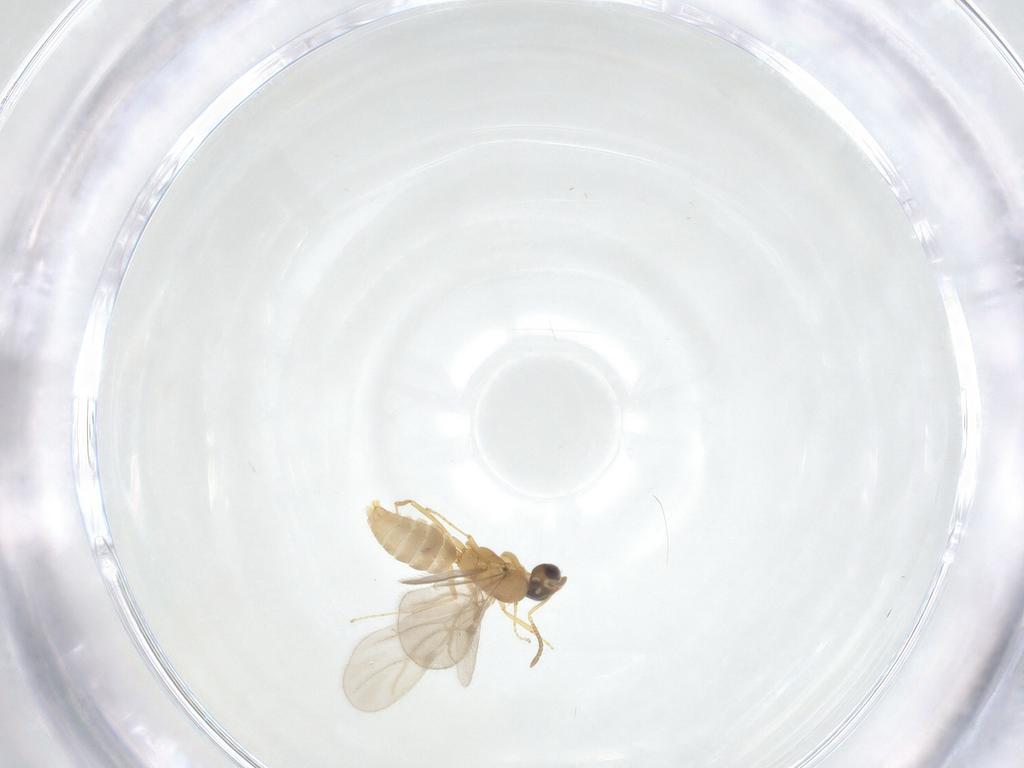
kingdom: Animalia
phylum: Arthropoda
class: Insecta
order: Hymenoptera
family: Formicidae
